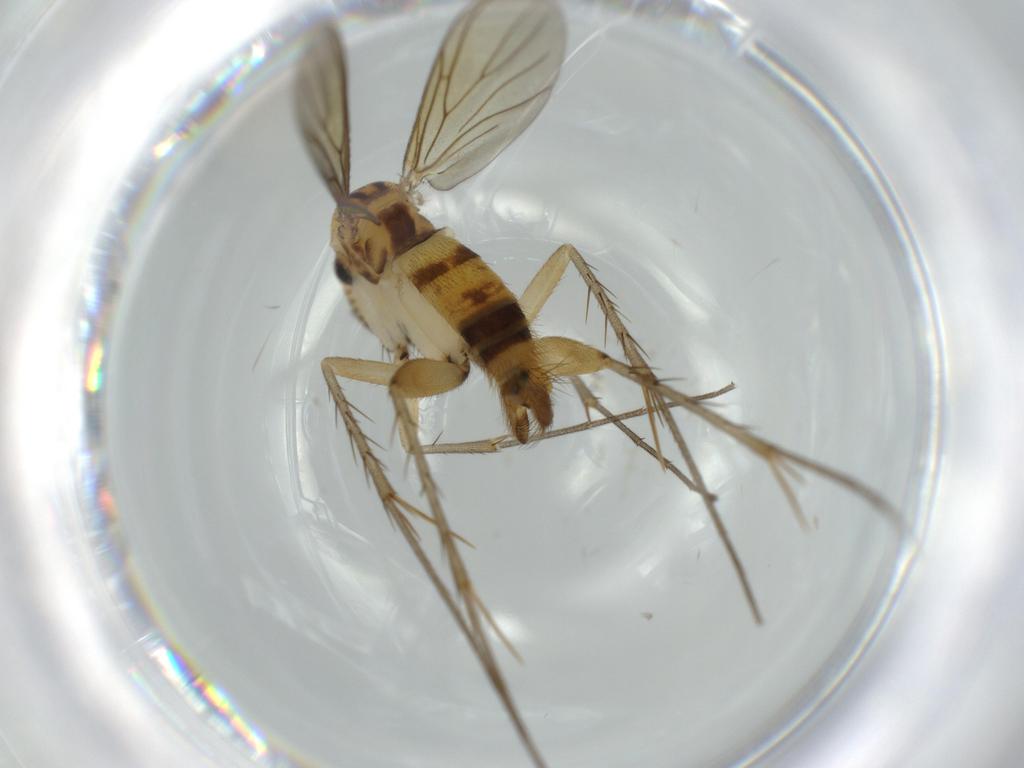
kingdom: Animalia
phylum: Arthropoda
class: Insecta
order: Diptera
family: Mycetophilidae
